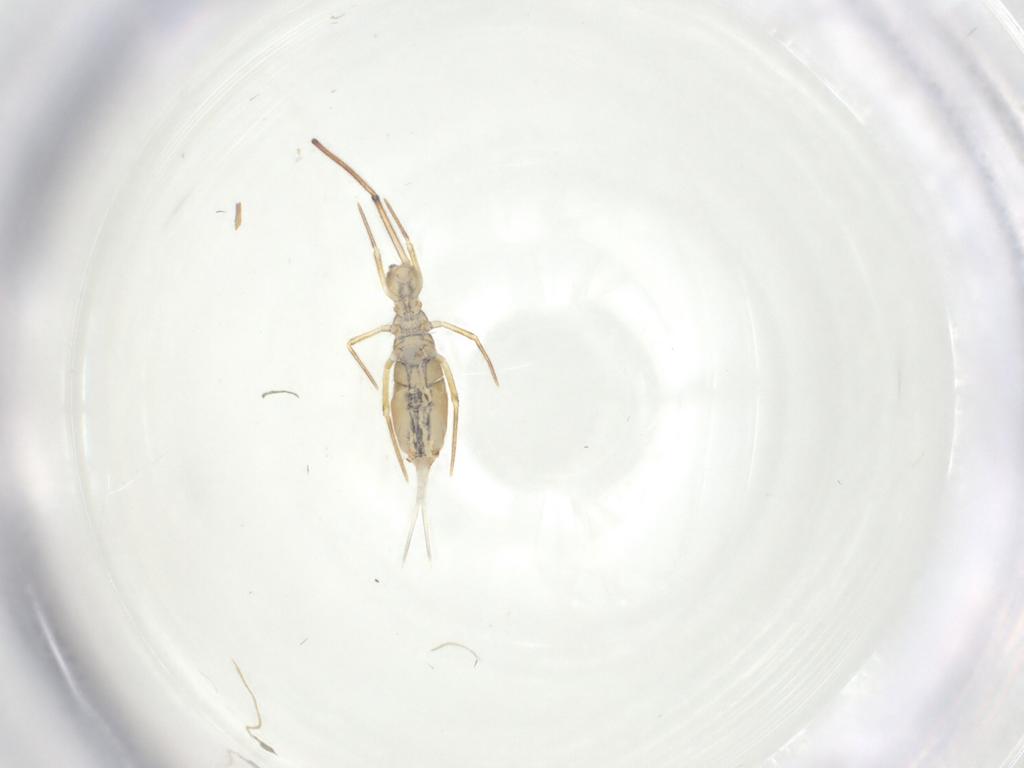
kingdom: Animalia
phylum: Arthropoda
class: Collembola
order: Entomobryomorpha
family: Paronellidae
